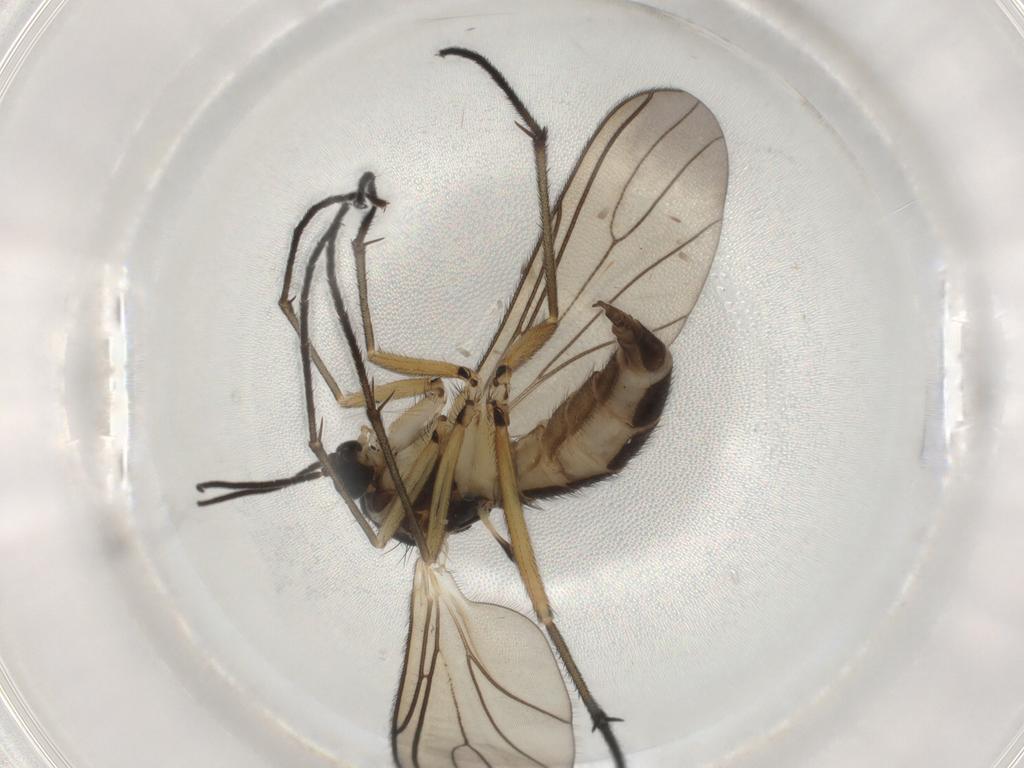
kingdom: Animalia
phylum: Arthropoda
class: Insecta
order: Diptera
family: Sciaridae
